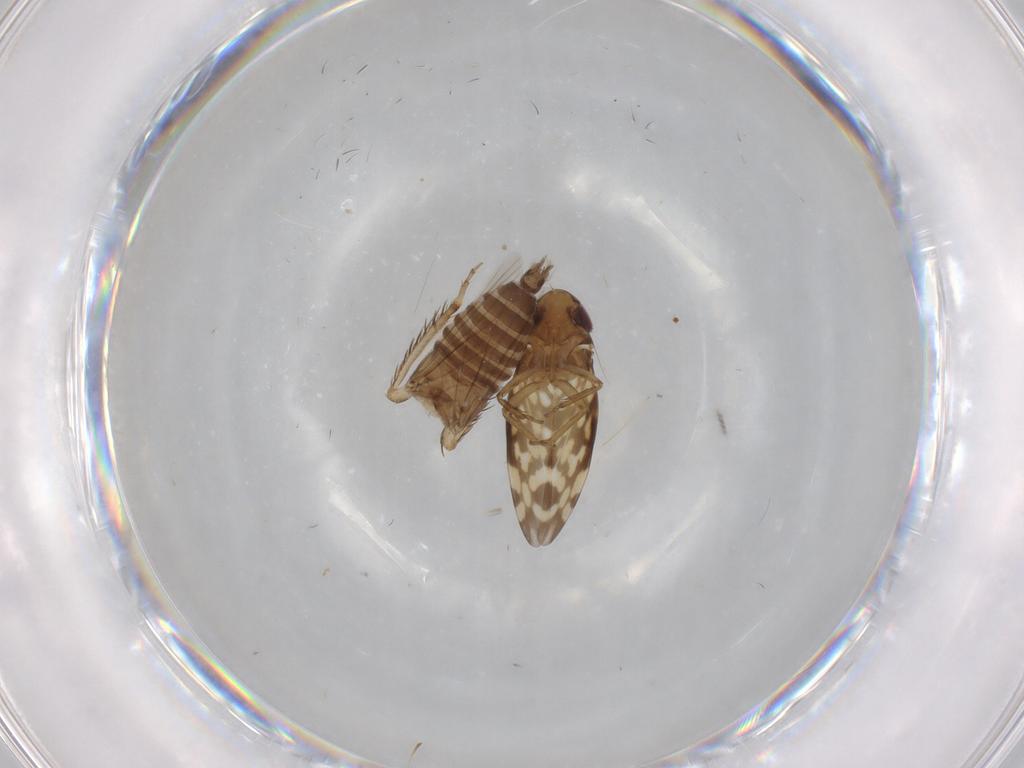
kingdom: Animalia
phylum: Arthropoda
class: Insecta
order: Hemiptera
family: Cicadellidae
